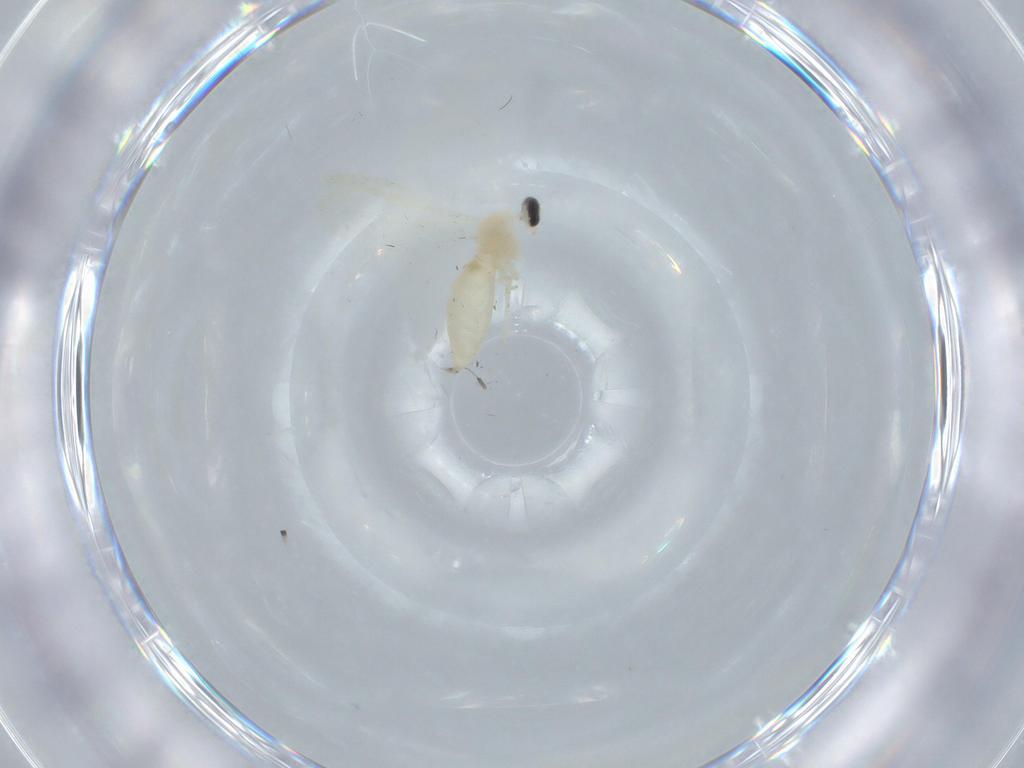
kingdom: Animalia
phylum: Arthropoda
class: Insecta
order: Diptera
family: Cecidomyiidae
